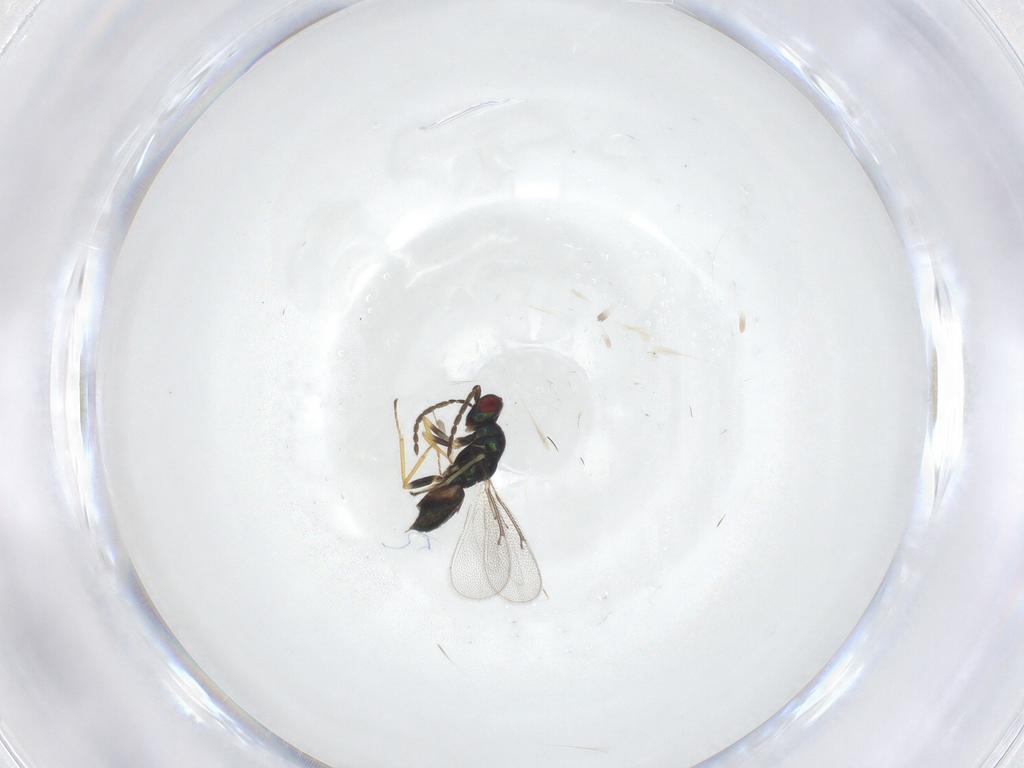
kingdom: Animalia
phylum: Arthropoda
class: Insecta
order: Hymenoptera
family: Eulophidae
